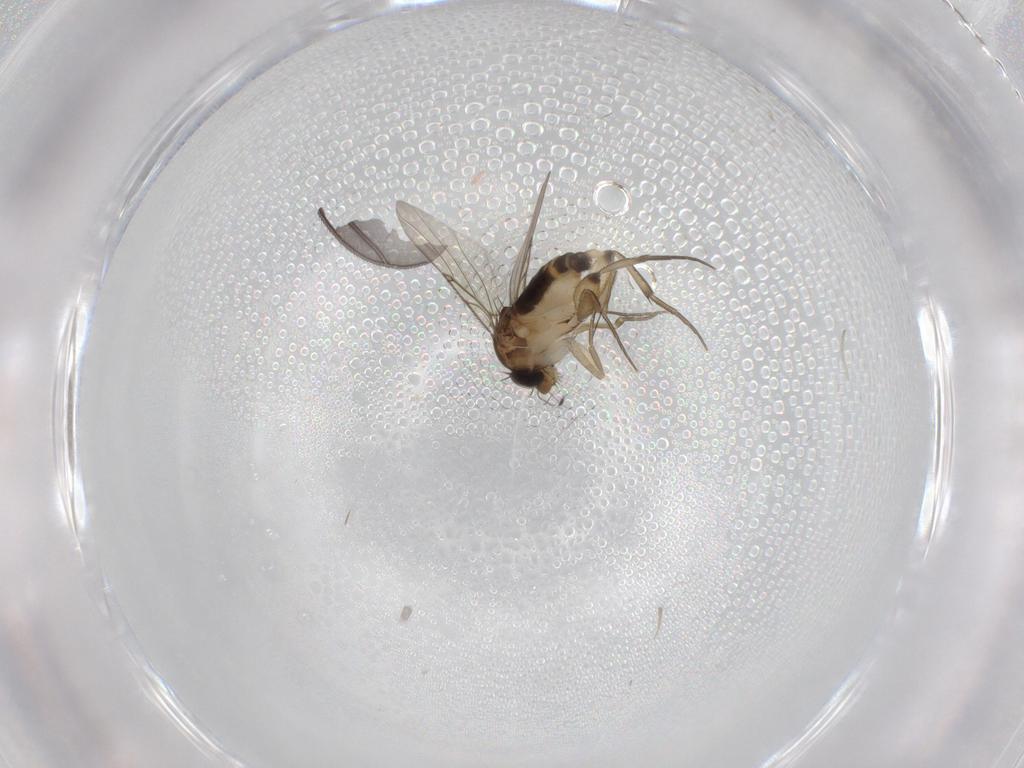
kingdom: Animalia
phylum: Arthropoda
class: Insecta
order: Diptera
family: Phoridae
